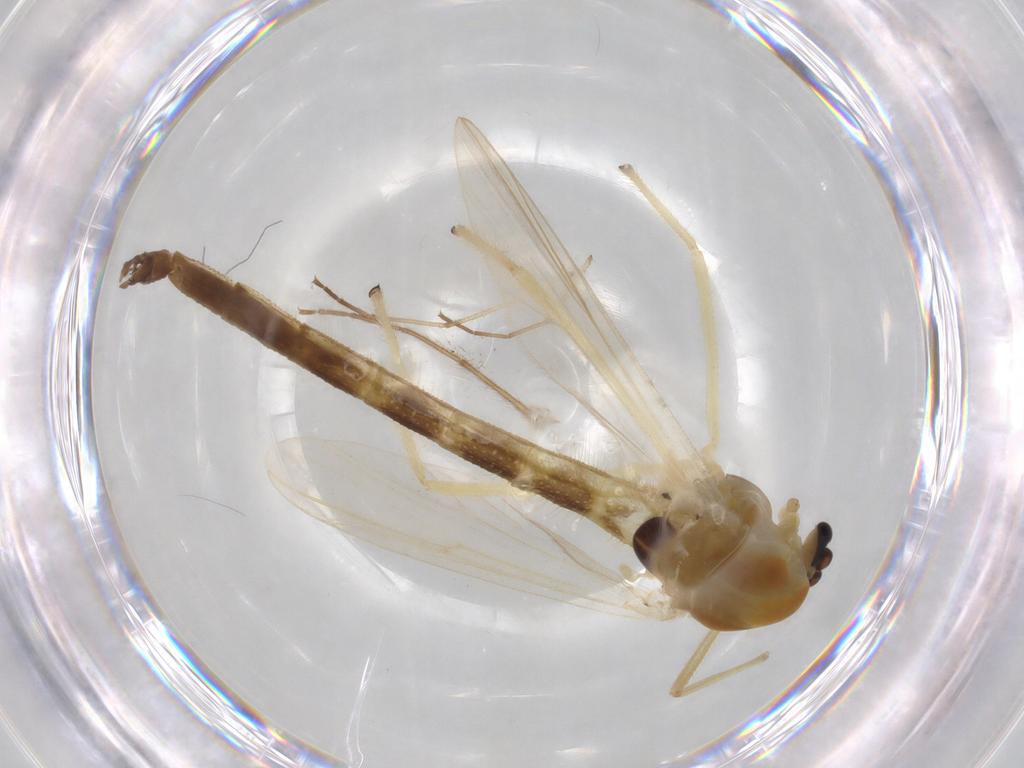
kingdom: Animalia
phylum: Arthropoda
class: Insecta
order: Diptera
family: Chironomidae
